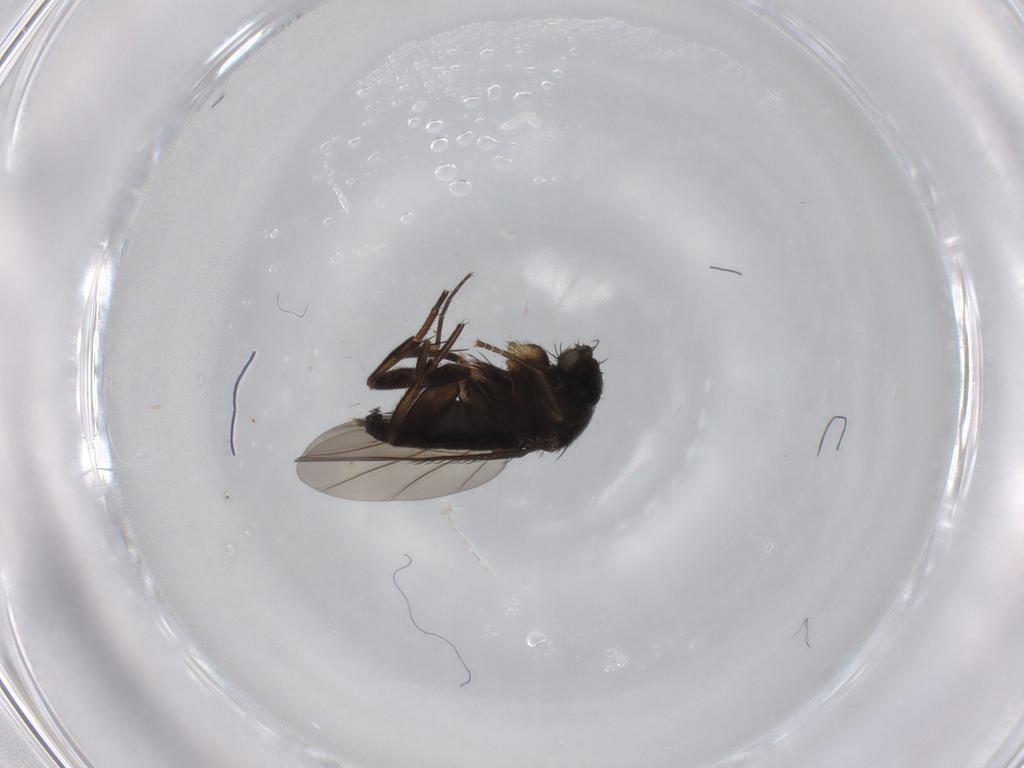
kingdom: Animalia
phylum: Arthropoda
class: Insecta
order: Diptera
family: Phoridae
